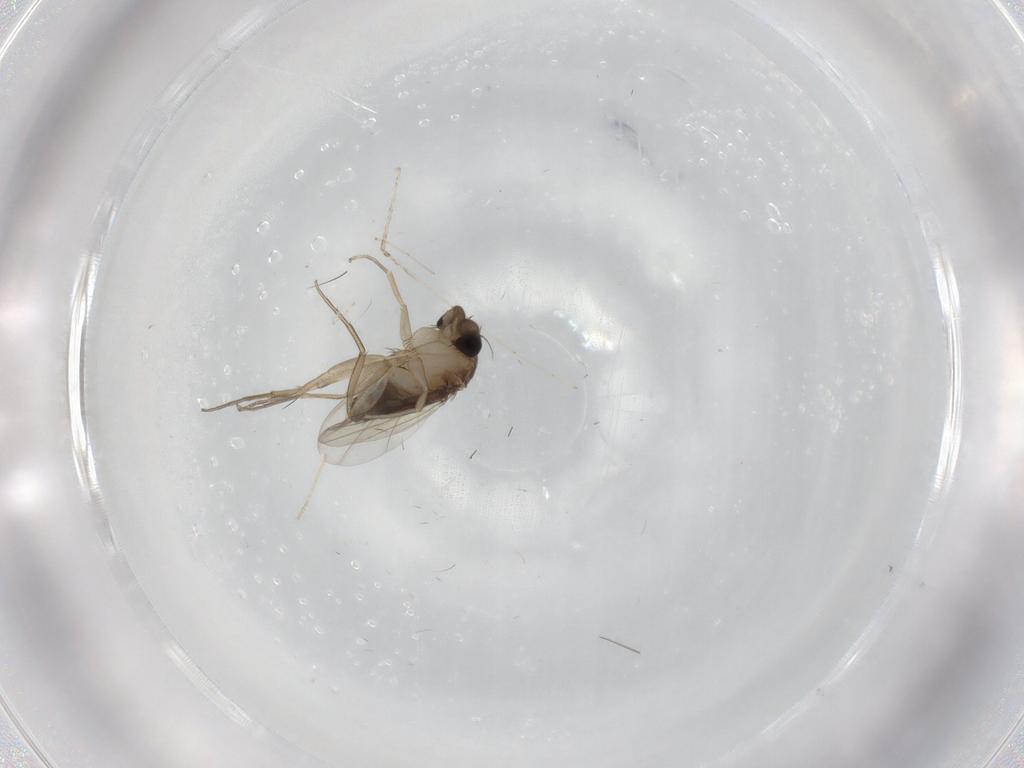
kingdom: Animalia
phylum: Arthropoda
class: Insecta
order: Diptera
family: Phoridae
